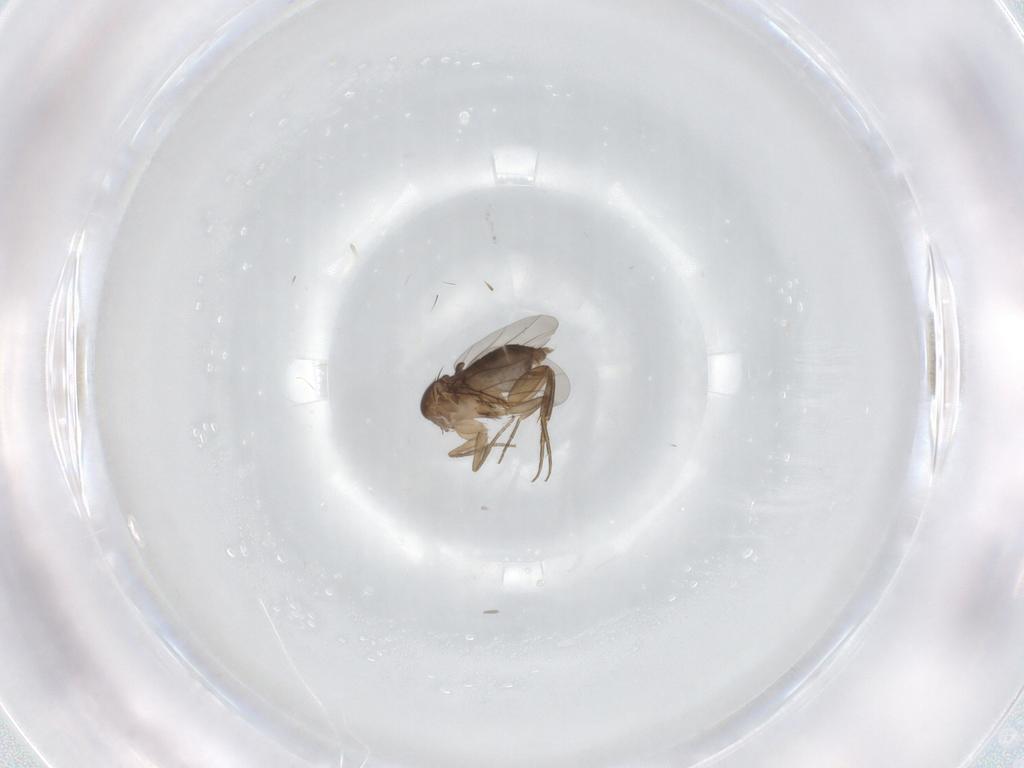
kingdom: Animalia
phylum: Arthropoda
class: Insecta
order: Diptera
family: Phoridae
